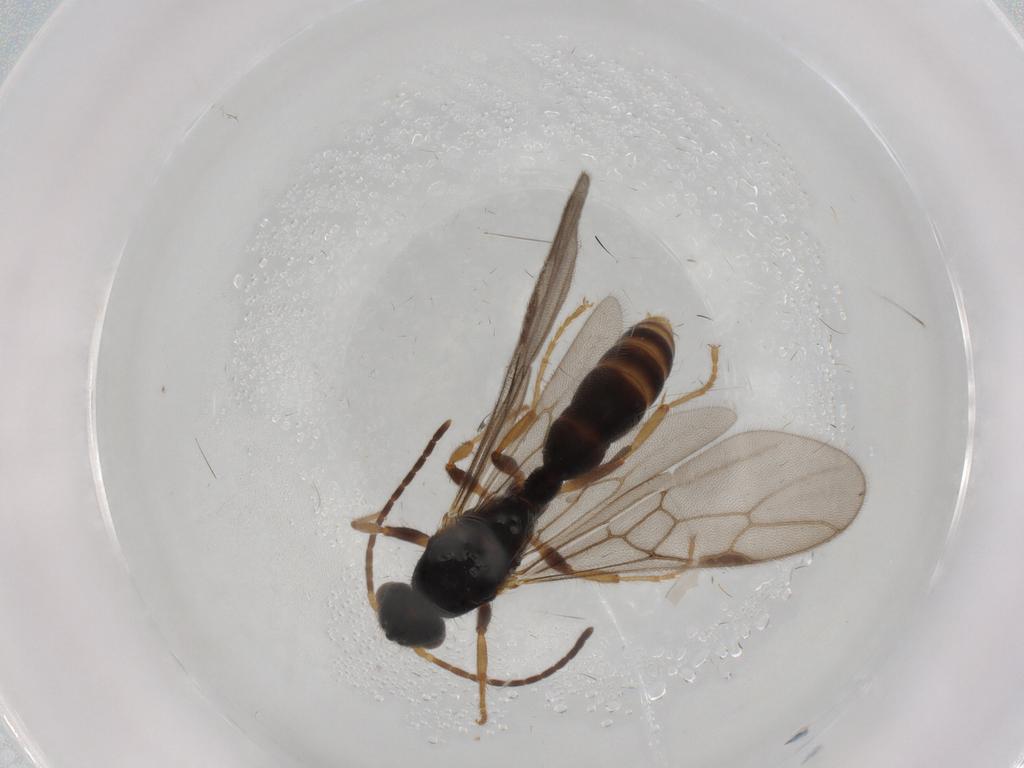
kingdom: Animalia
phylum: Arthropoda
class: Insecta
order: Hymenoptera
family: Formicidae
